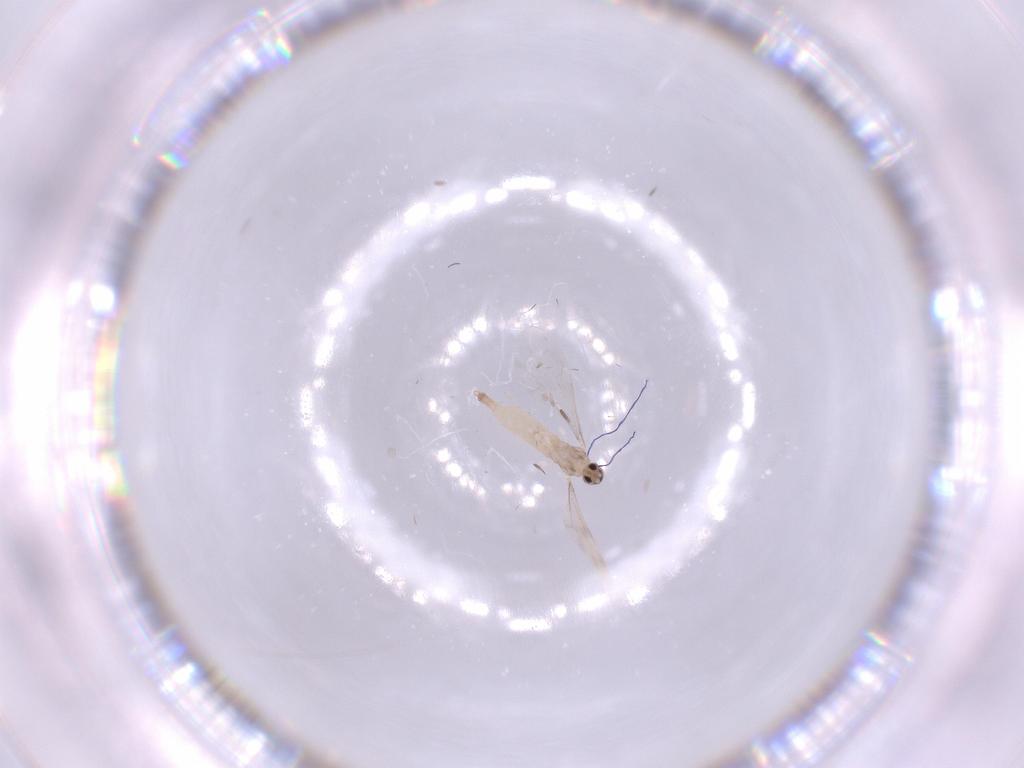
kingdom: Animalia
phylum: Arthropoda
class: Insecta
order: Diptera
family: Cecidomyiidae
